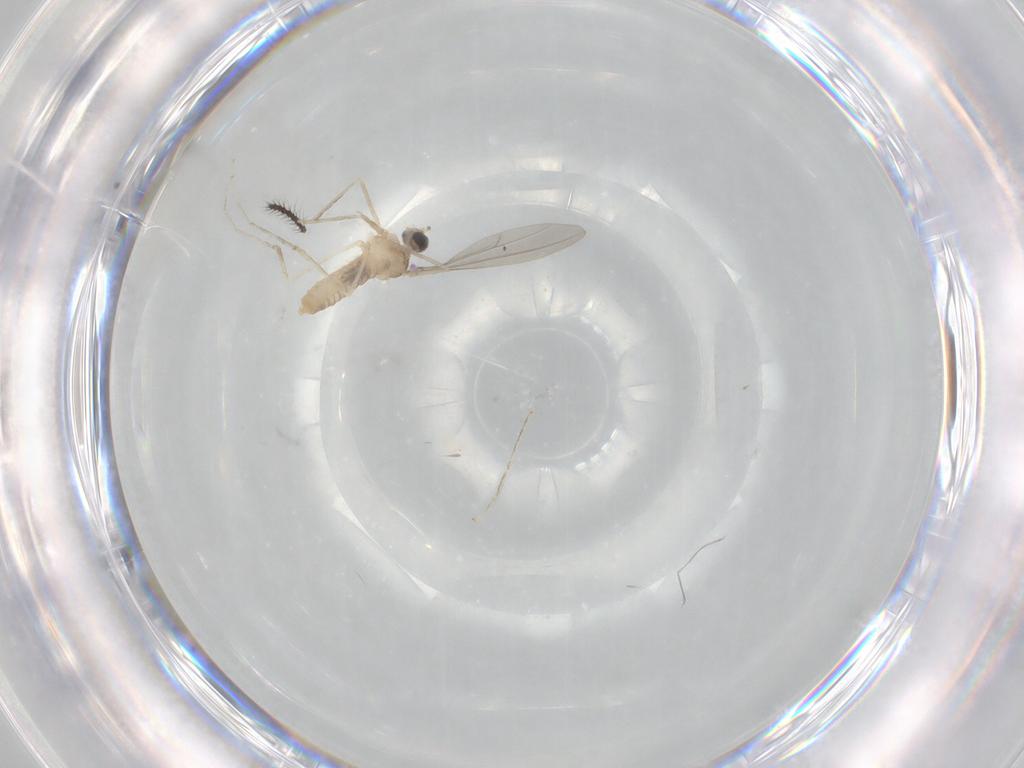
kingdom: Animalia
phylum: Arthropoda
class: Insecta
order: Diptera
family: Cecidomyiidae
